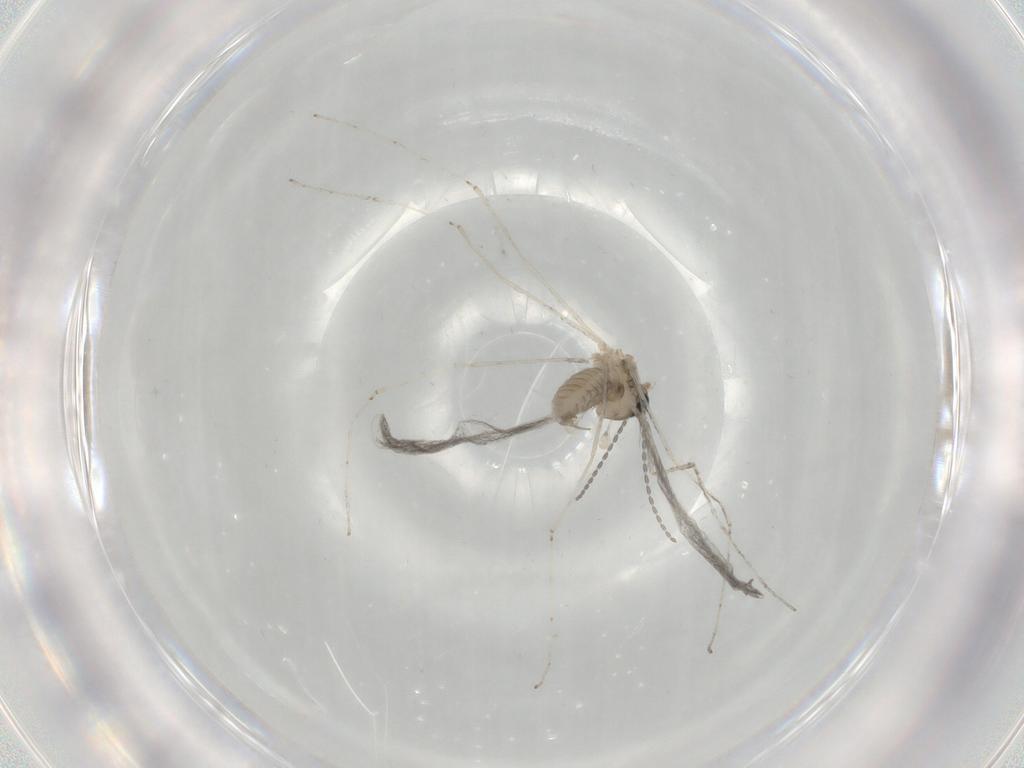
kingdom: Animalia
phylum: Arthropoda
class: Insecta
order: Diptera
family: Cecidomyiidae
